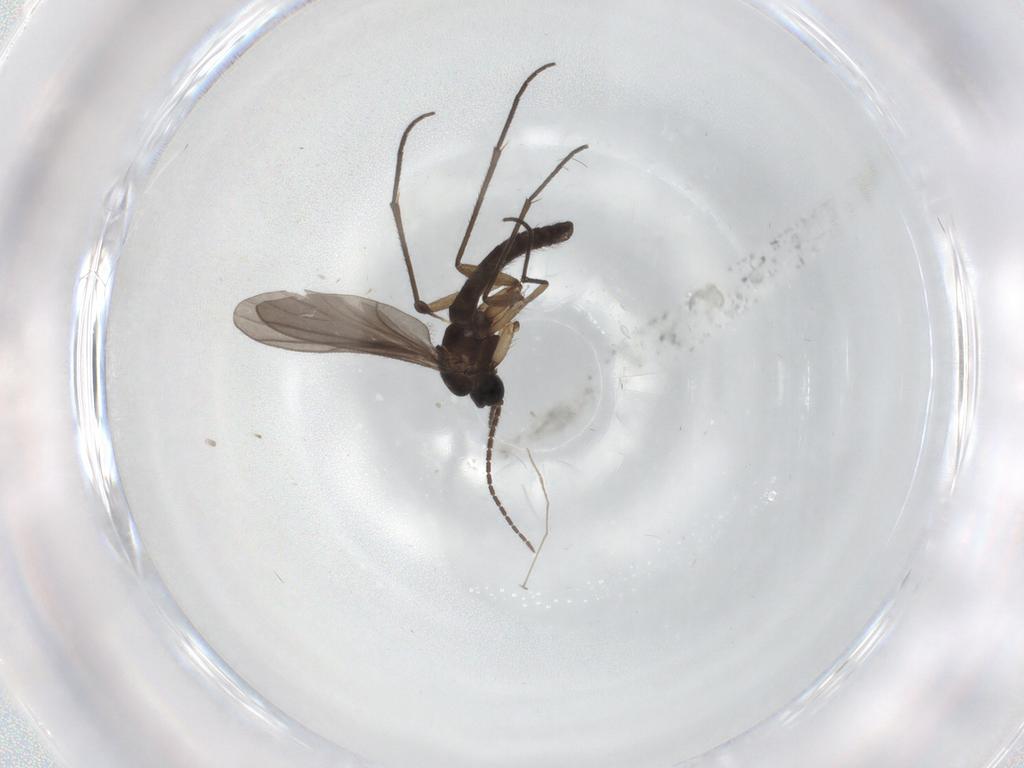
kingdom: Animalia
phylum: Arthropoda
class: Insecta
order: Diptera
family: Sciaridae
